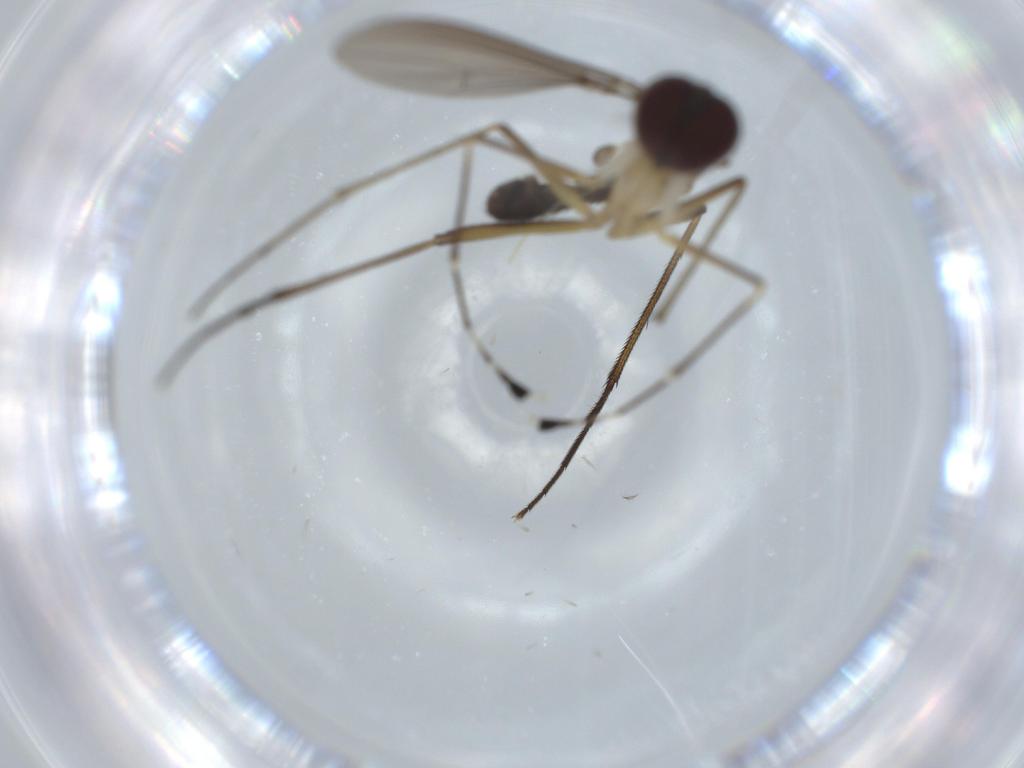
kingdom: Animalia
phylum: Arthropoda
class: Insecta
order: Diptera
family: Dolichopodidae
